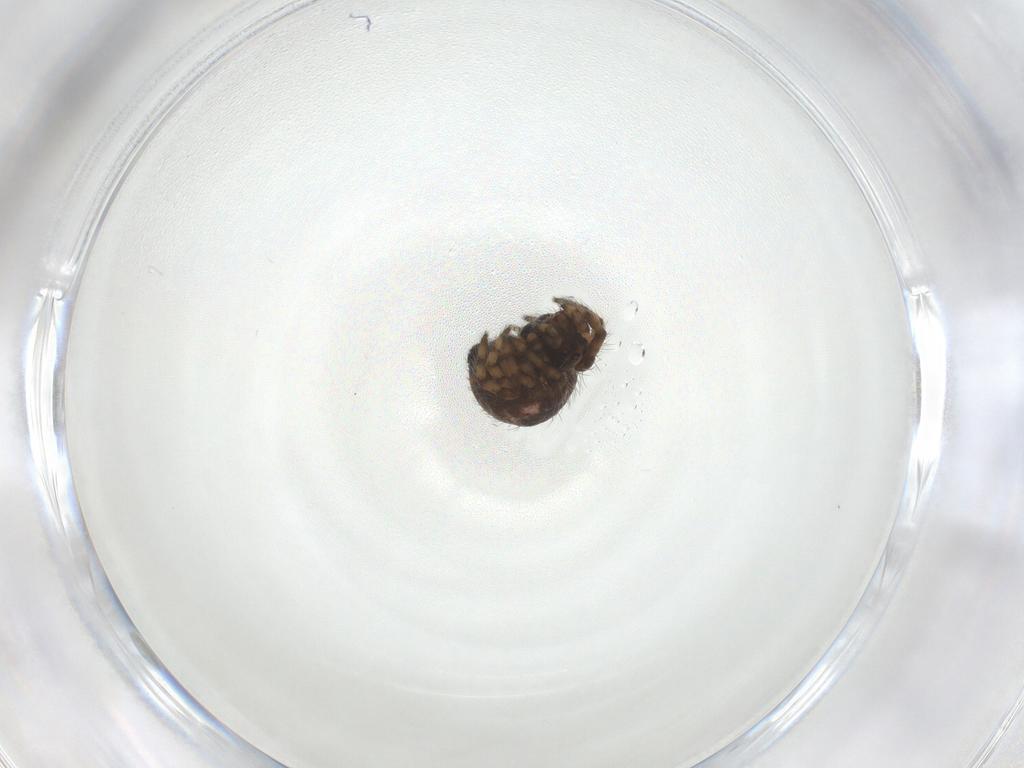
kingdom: Animalia
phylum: Arthropoda
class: Arachnida
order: Araneae
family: Araneidae
